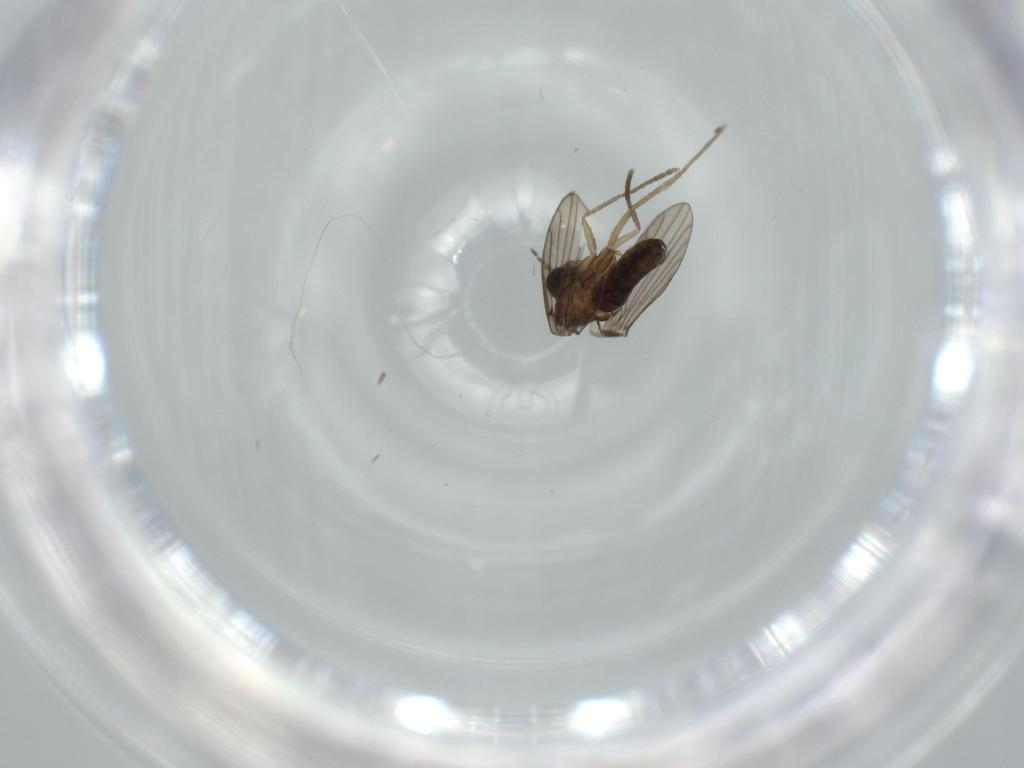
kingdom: Animalia
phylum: Arthropoda
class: Insecta
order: Diptera
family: Psychodidae
